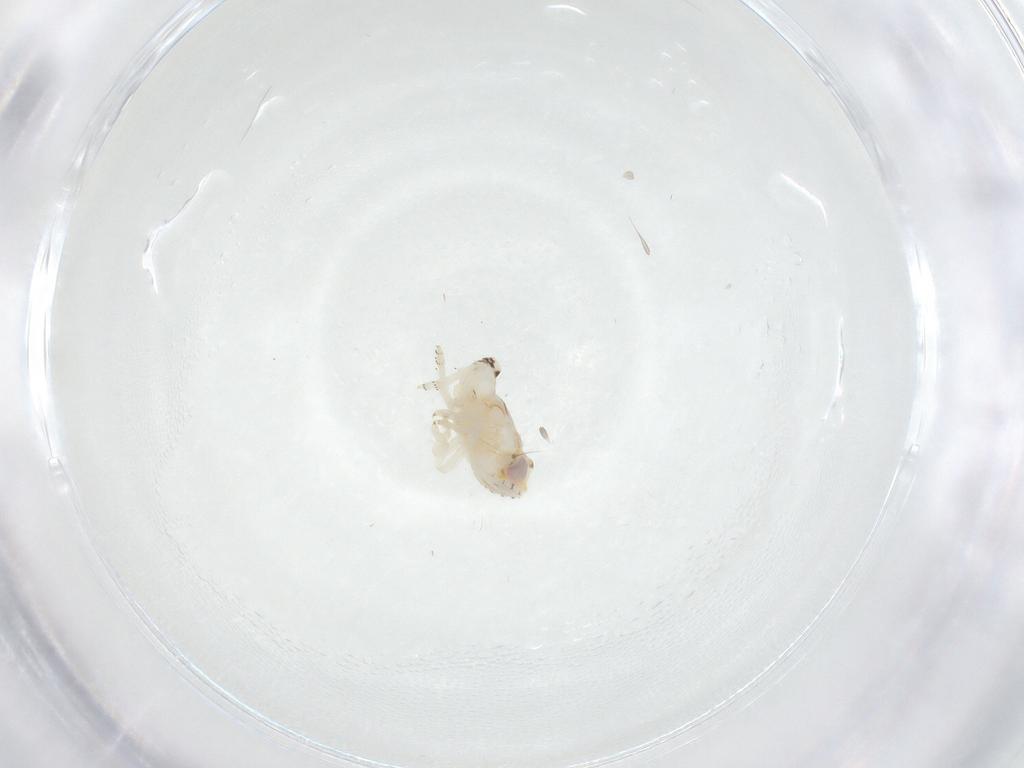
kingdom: Animalia
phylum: Arthropoda
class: Insecta
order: Hemiptera
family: Nogodinidae
